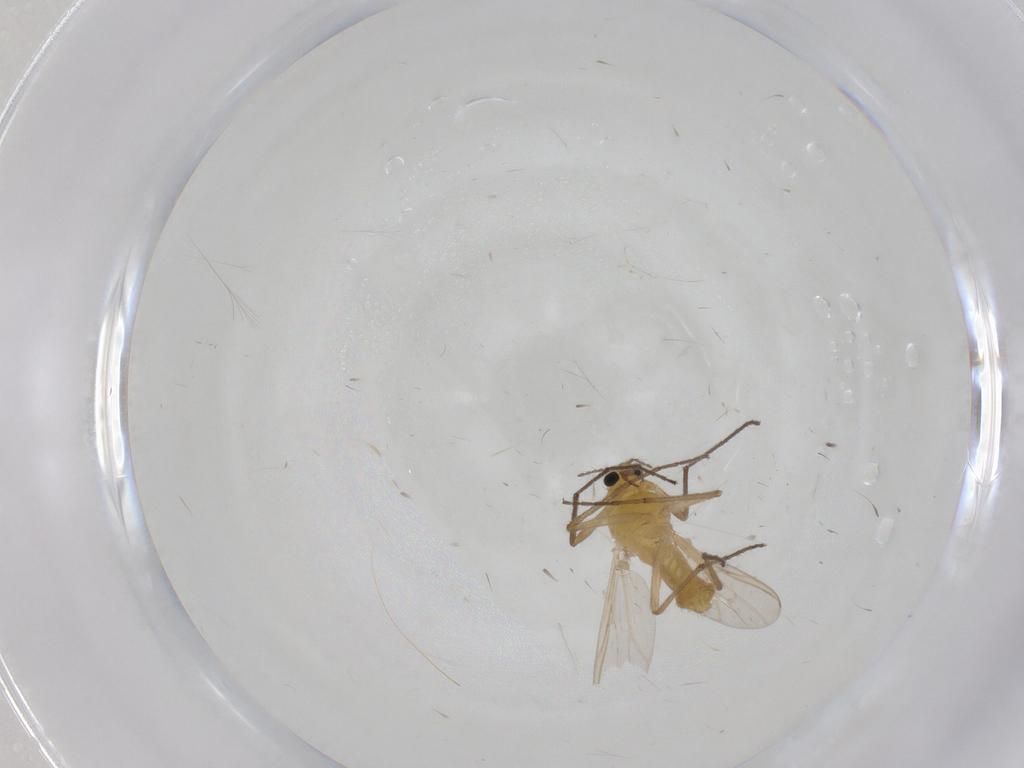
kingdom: Animalia
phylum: Arthropoda
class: Insecta
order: Diptera
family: Chironomidae
